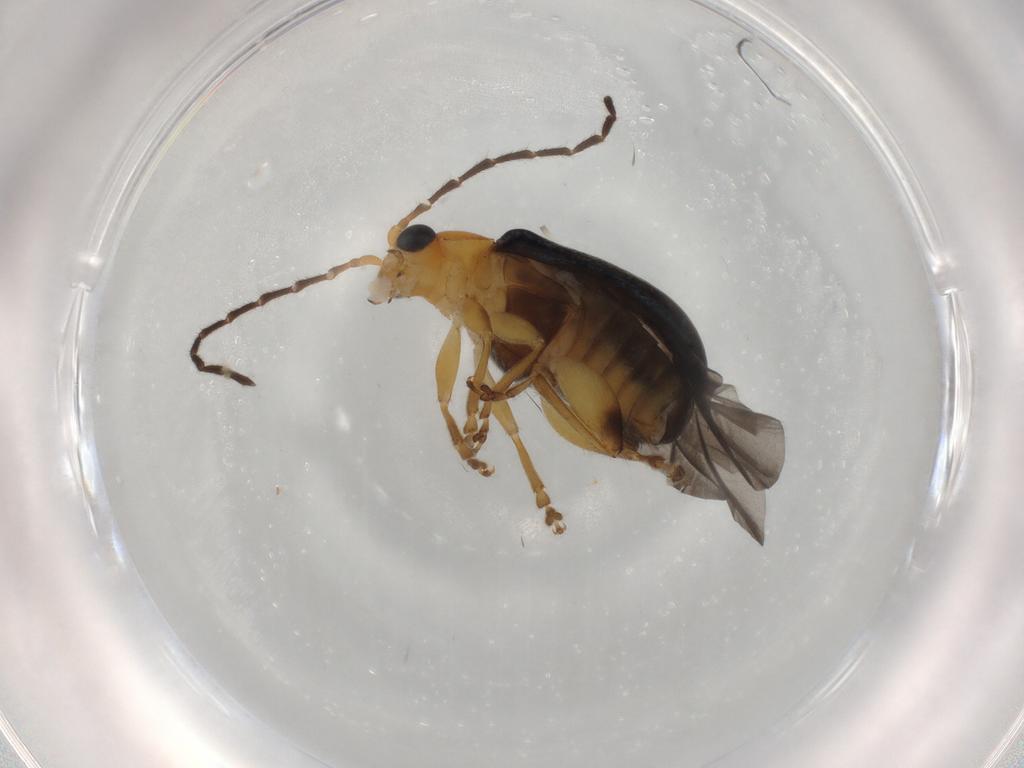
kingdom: Animalia
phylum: Arthropoda
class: Insecta
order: Coleoptera
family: Chrysomelidae
